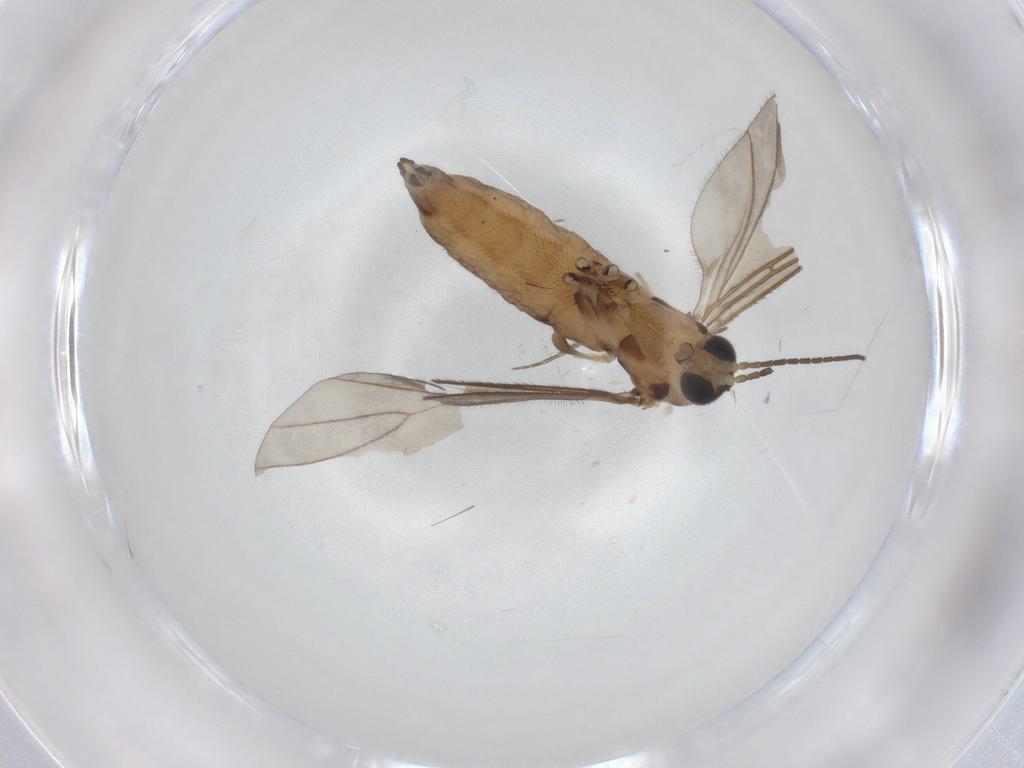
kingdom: Animalia
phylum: Arthropoda
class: Insecta
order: Diptera
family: Sciaridae
